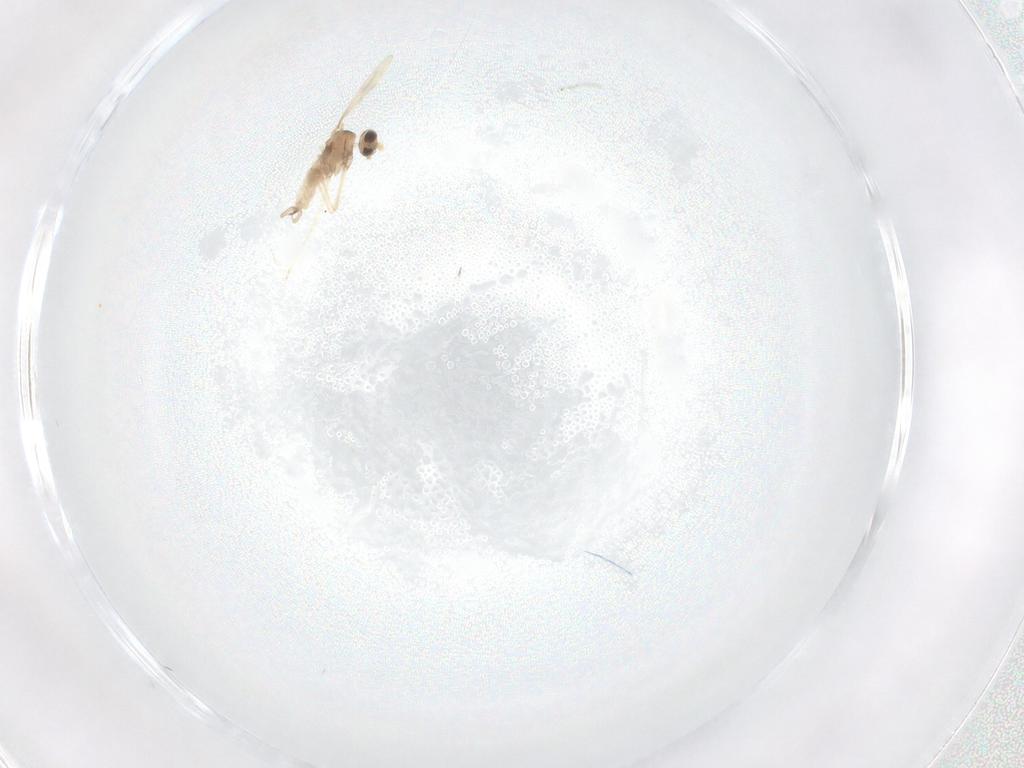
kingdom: Animalia
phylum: Arthropoda
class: Insecta
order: Diptera
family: Cecidomyiidae
